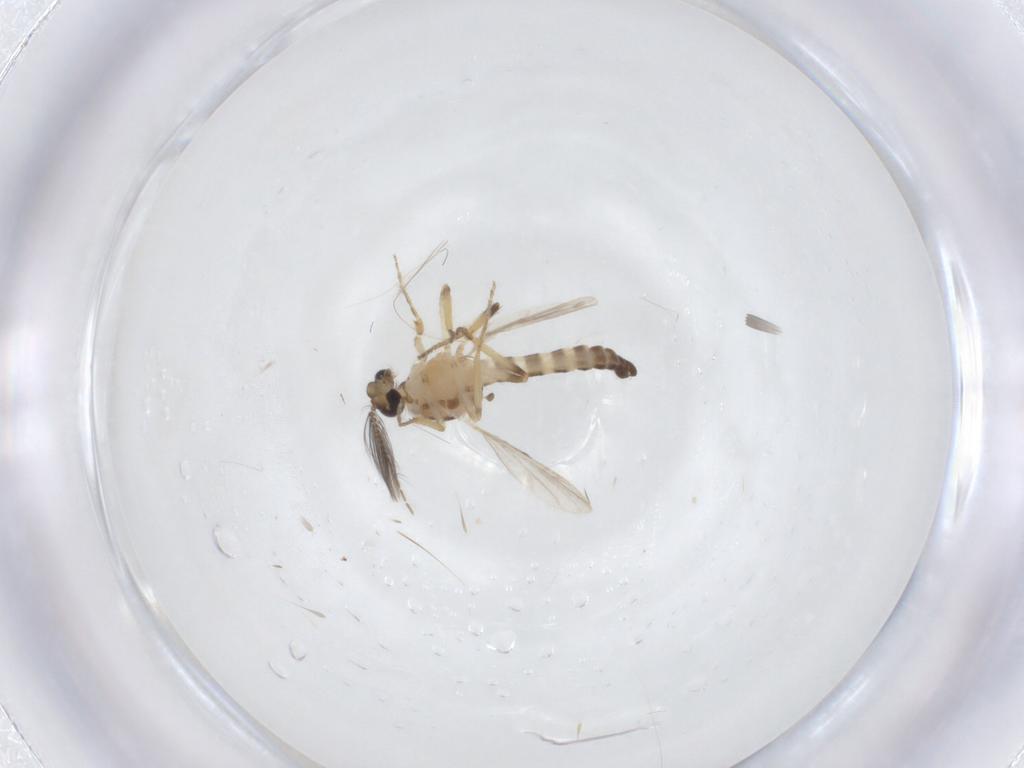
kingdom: Animalia
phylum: Arthropoda
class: Insecta
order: Diptera
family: Ceratopogonidae
